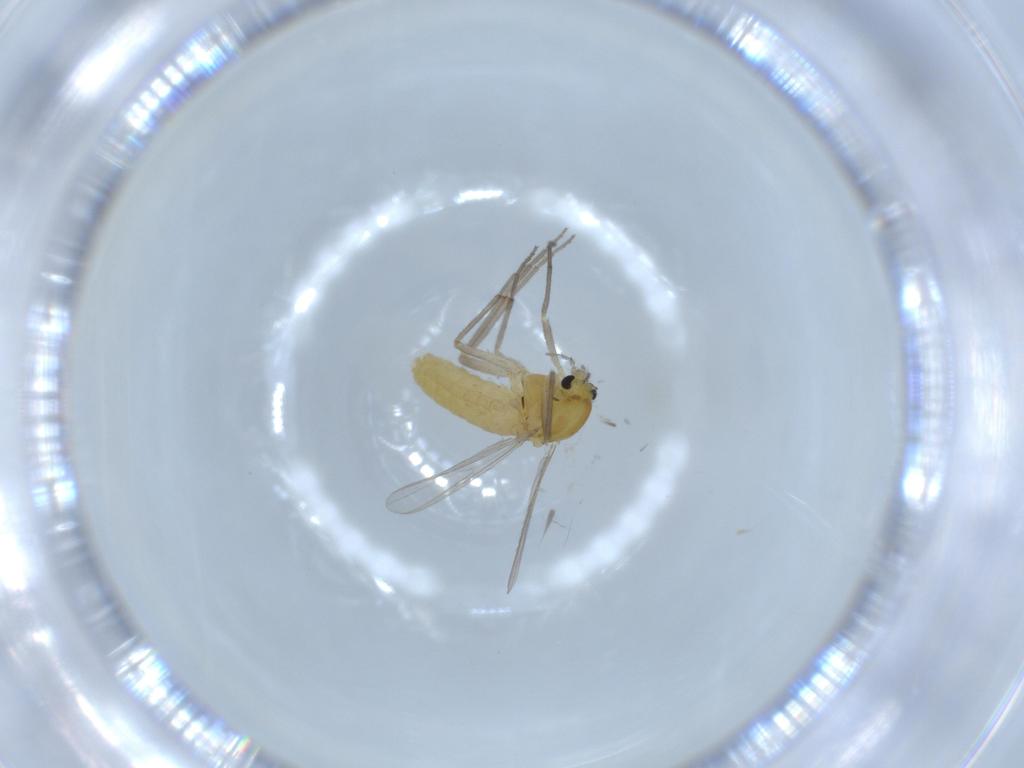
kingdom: Animalia
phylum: Arthropoda
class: Insecta
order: Diptera
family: Chironomidae
